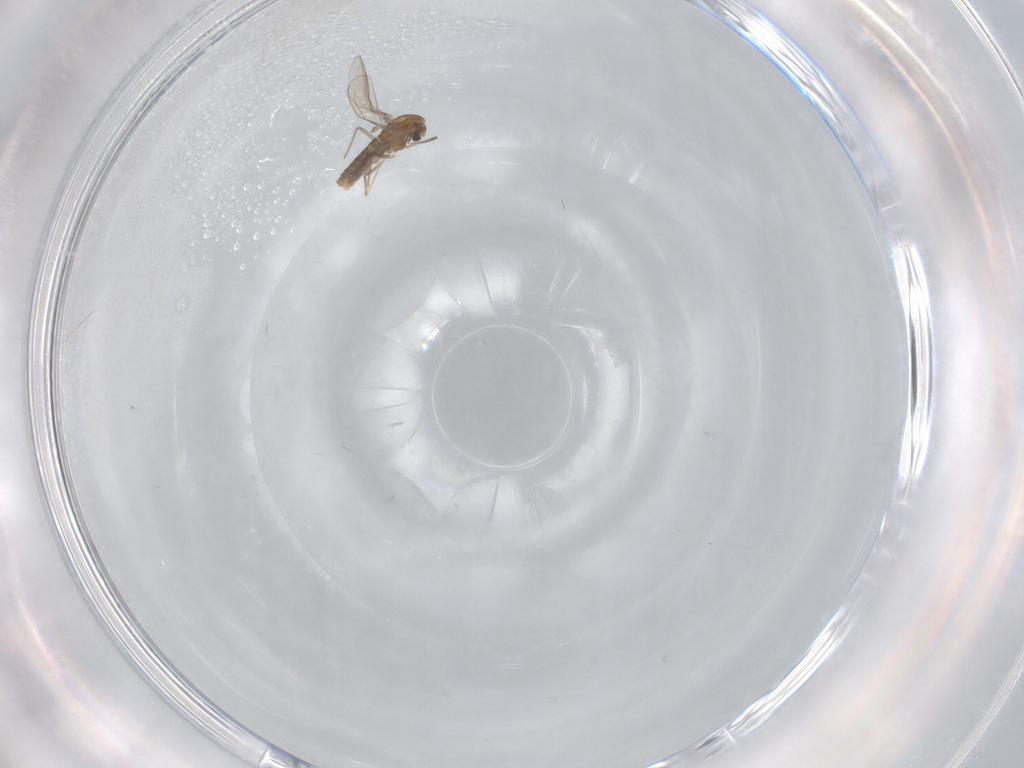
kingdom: Animalia
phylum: Arthropoda
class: Insecta
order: Diptera
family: Chironomidae
